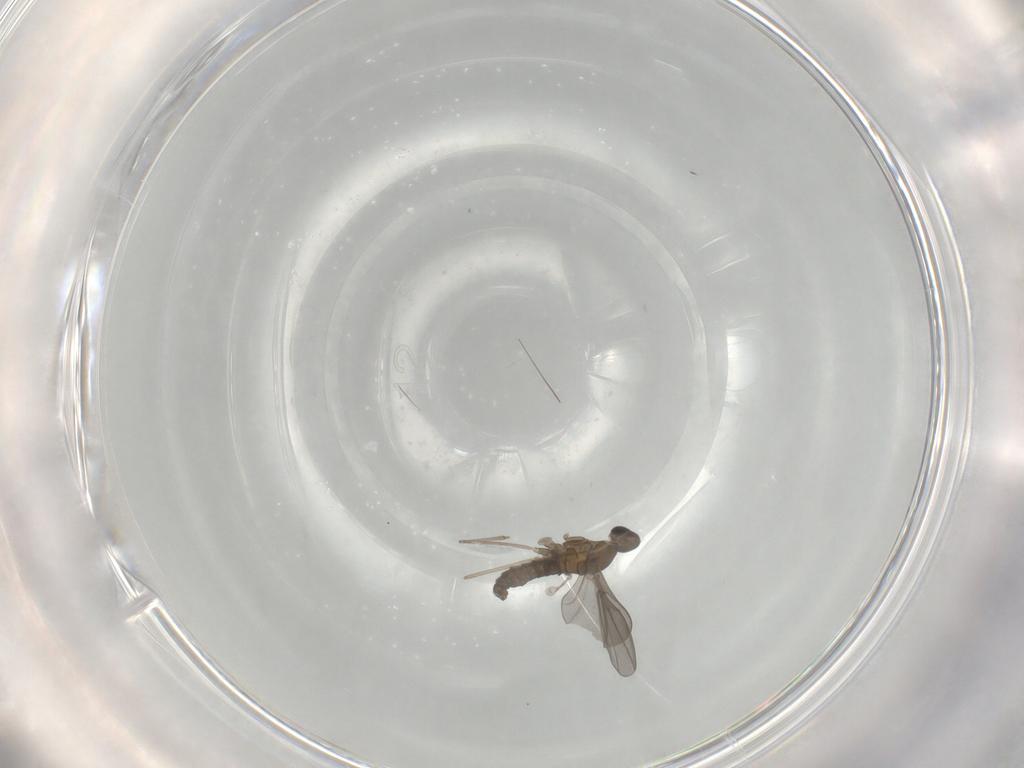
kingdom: Animalia
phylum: Arthropoda
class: Insecta
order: Diptera
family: Cecidomyiidae
